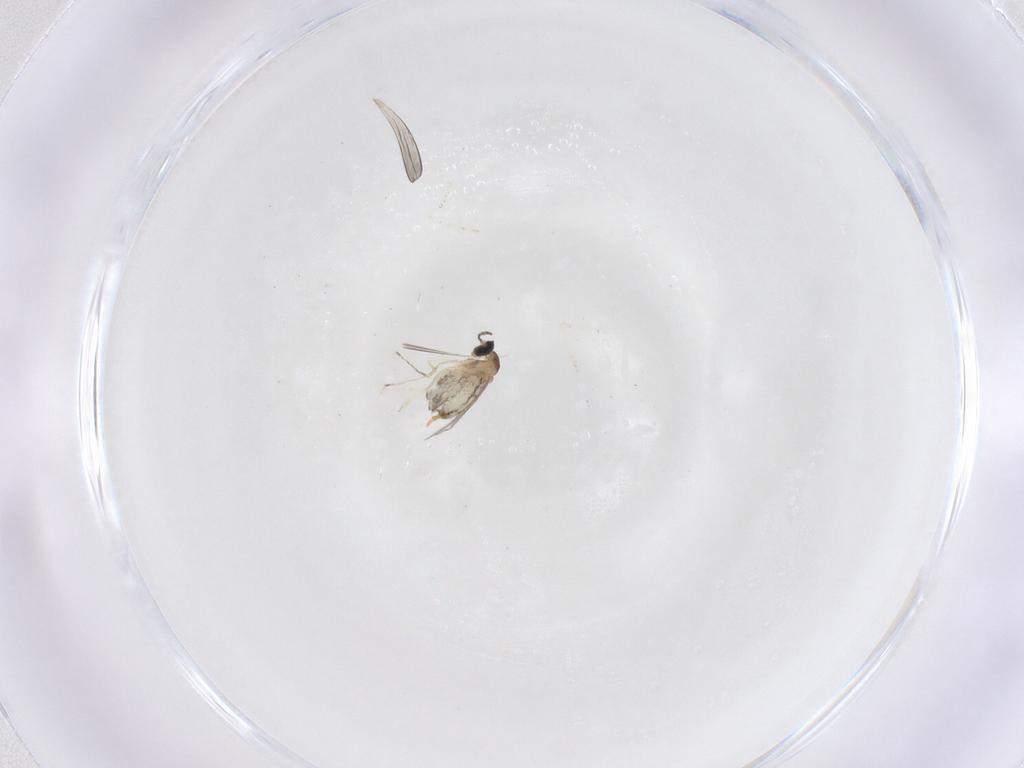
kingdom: Animalia
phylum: Arthropoda
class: Insecta
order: Diptera
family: Cecidomyiidae
